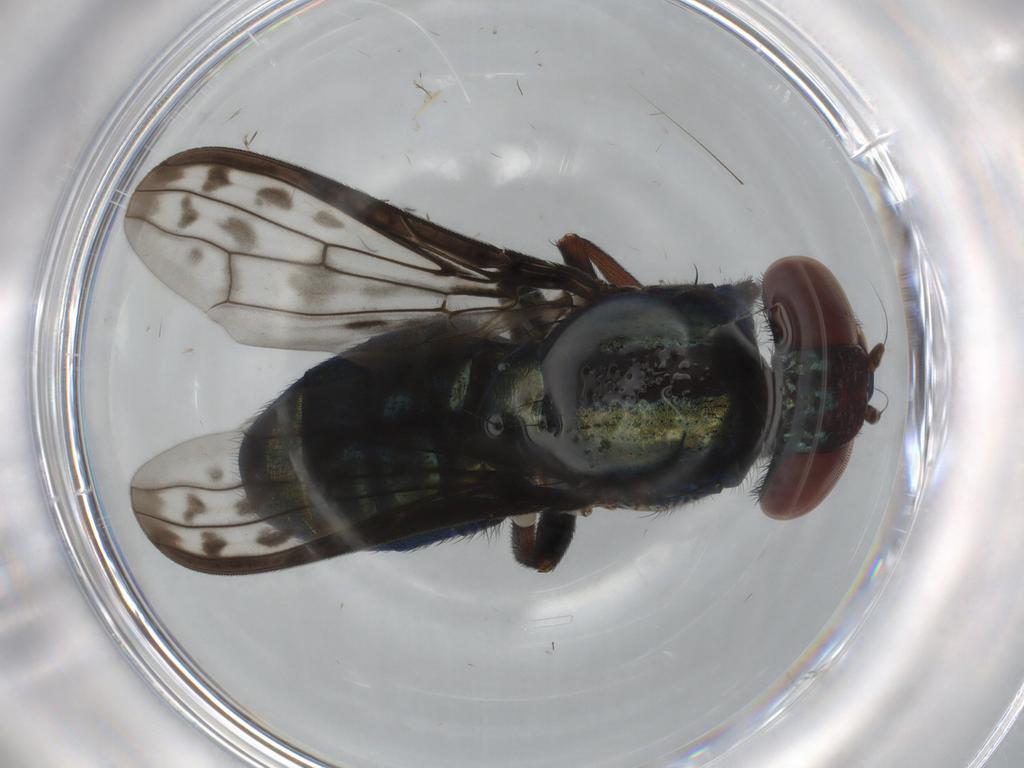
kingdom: Animalia
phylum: Arthropoda
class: Insecta
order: Diptera
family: Ulidiidae
